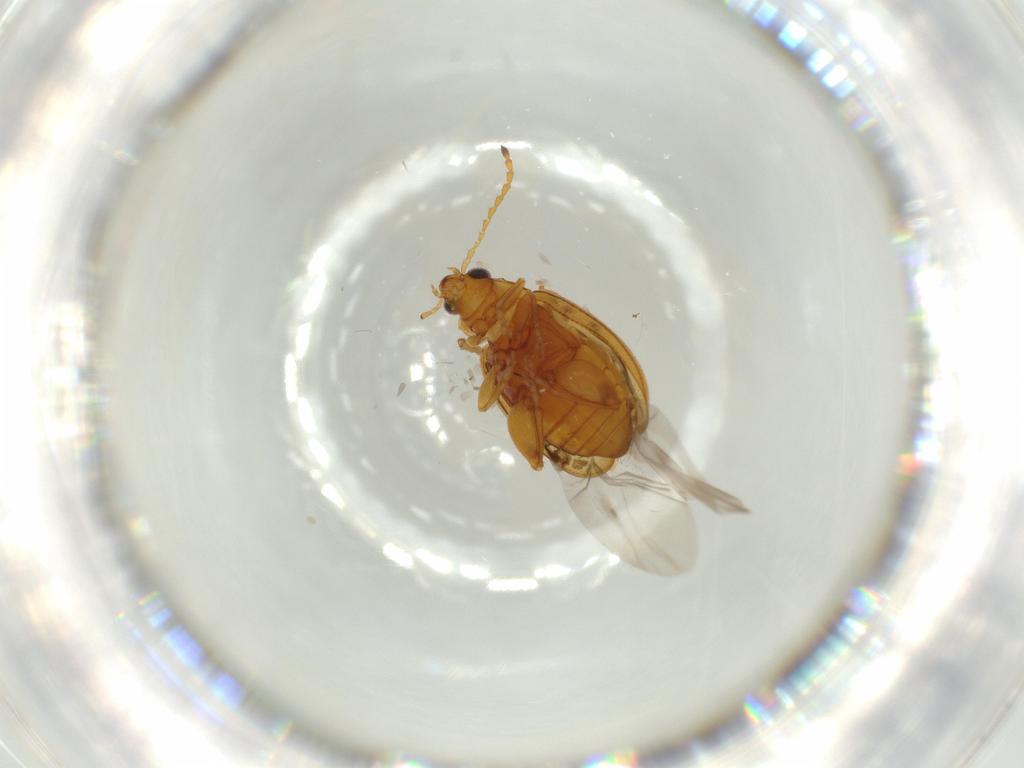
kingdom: Animalia
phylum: Arthropoda
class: Insecta
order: Coleoptera
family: Chrysomelidae
